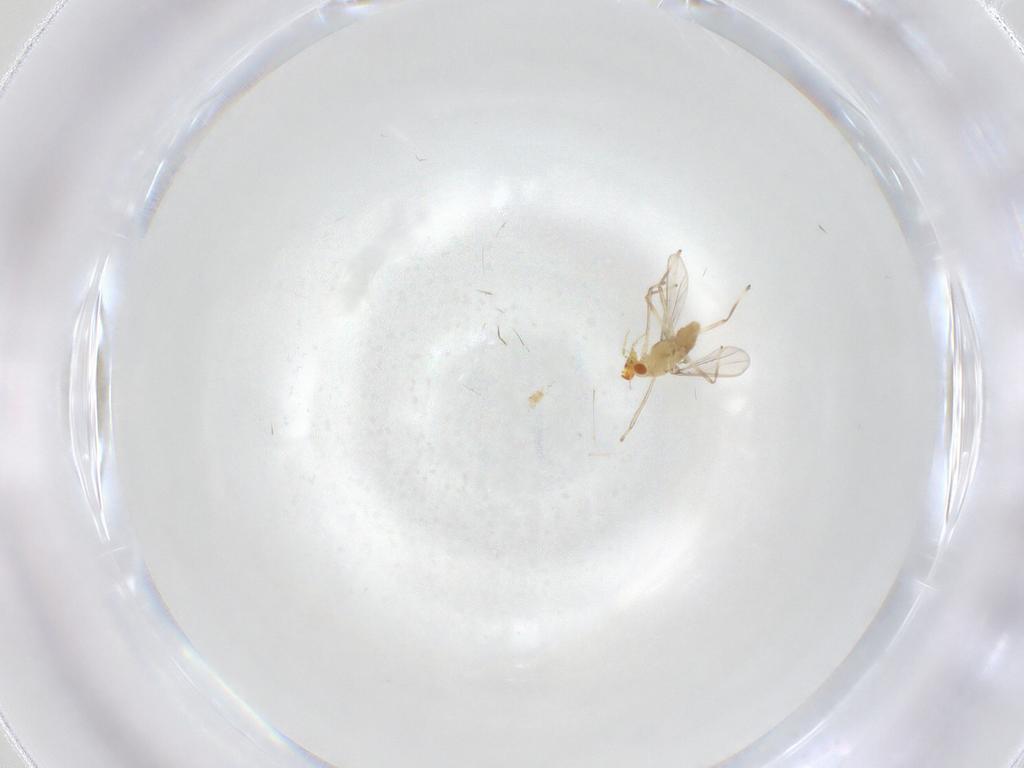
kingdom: Animalia
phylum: Arthropoda
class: Insecta
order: Diptera
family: Chironomidae
